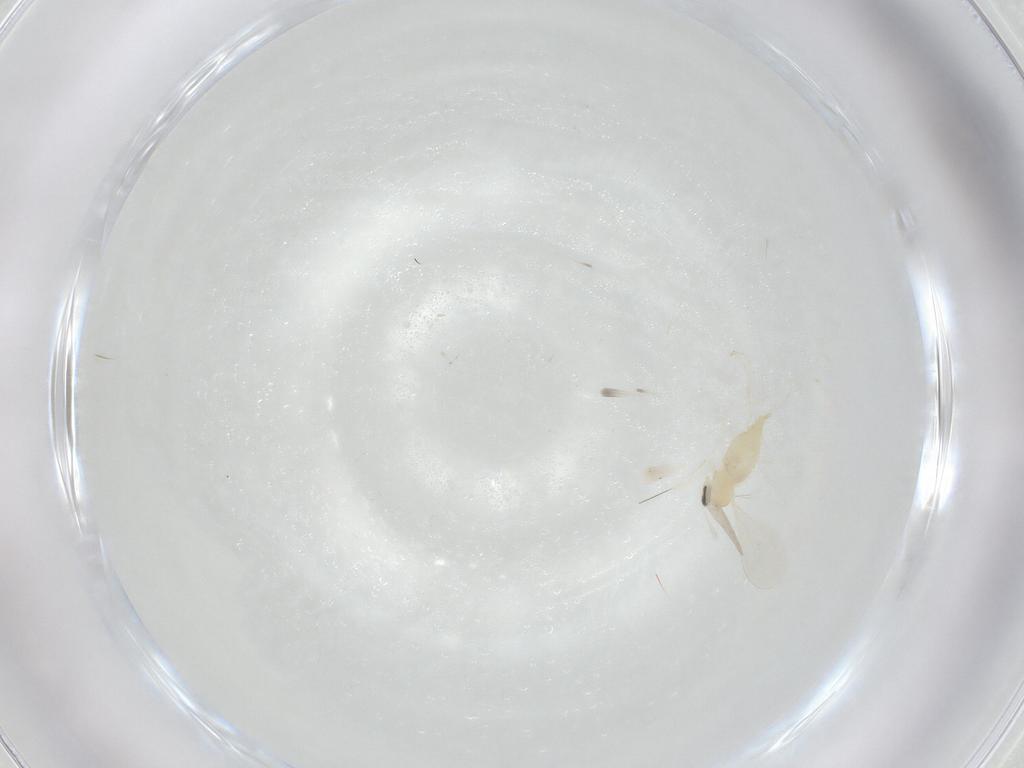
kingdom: Animalia
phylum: Arthropoda
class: Insecta
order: Diptera
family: Cecidomyiidae
